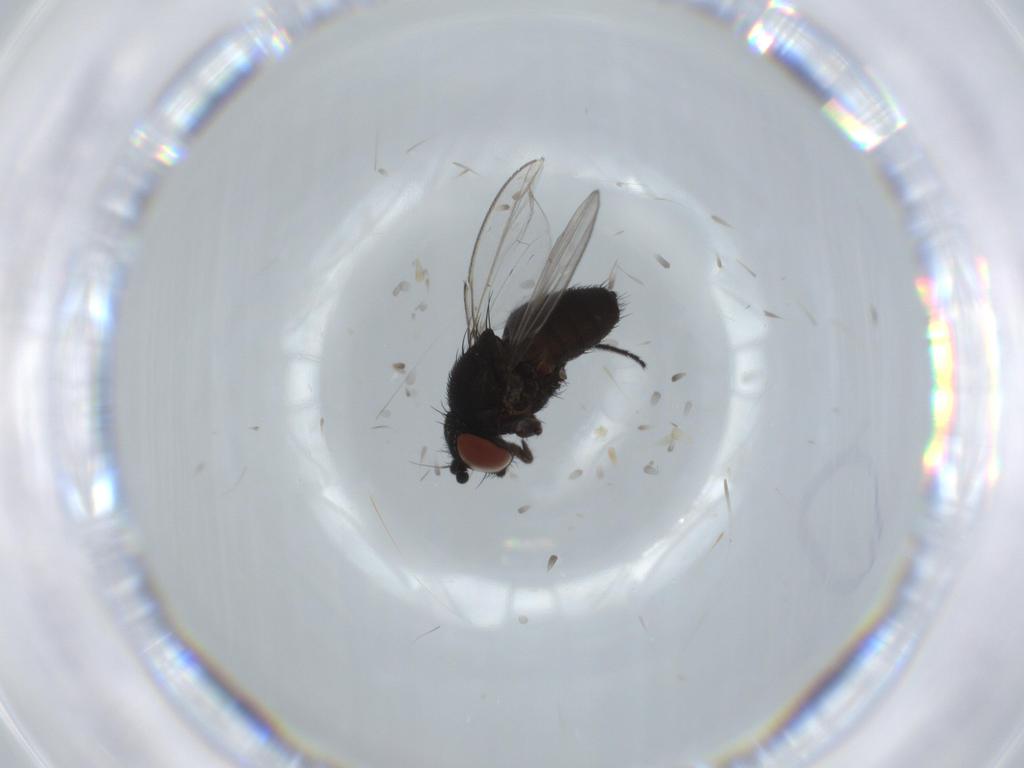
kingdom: Animalia
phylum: Arthropoda
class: Insecta
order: Diptera
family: Milichiidae
